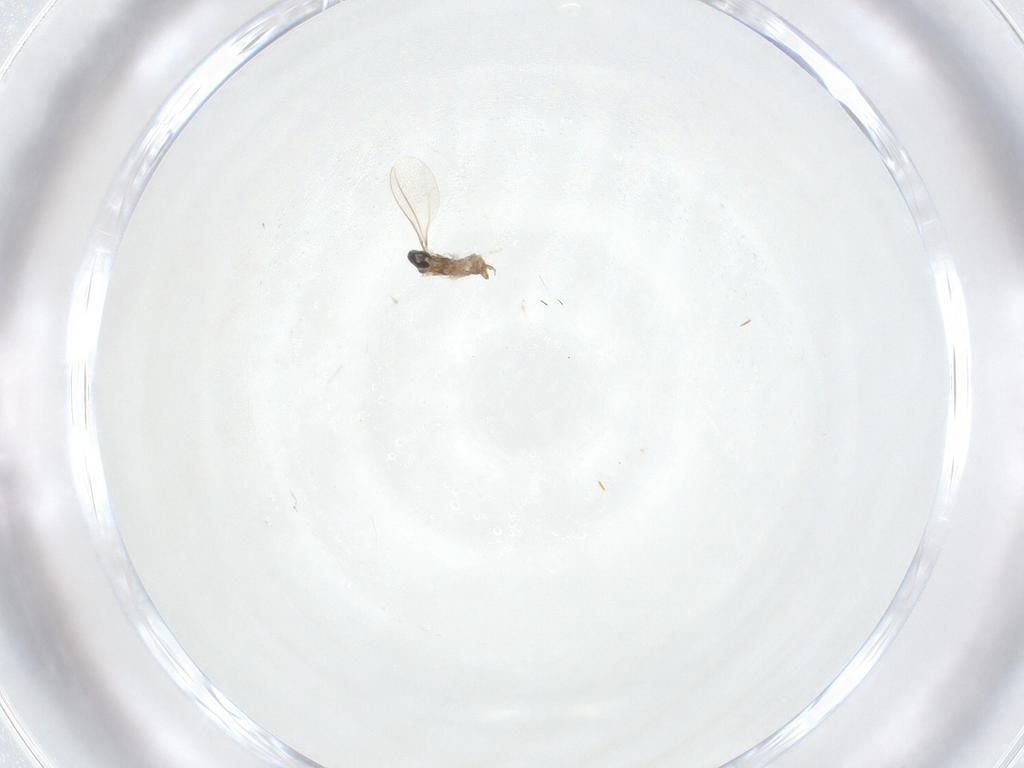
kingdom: Animalia
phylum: Arthropoda
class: Insecta
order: Diptera
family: Cecidomyiidae
